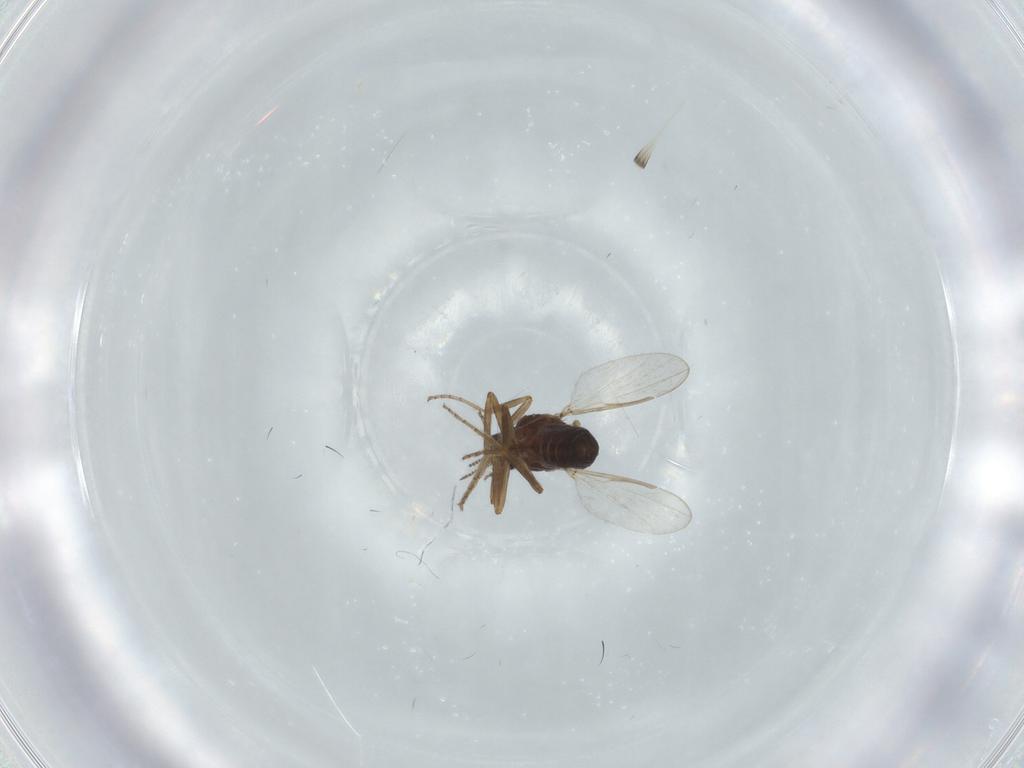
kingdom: Animalia
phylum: Arthropoda
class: Insecta
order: Diptera
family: Ceratopogonidae
